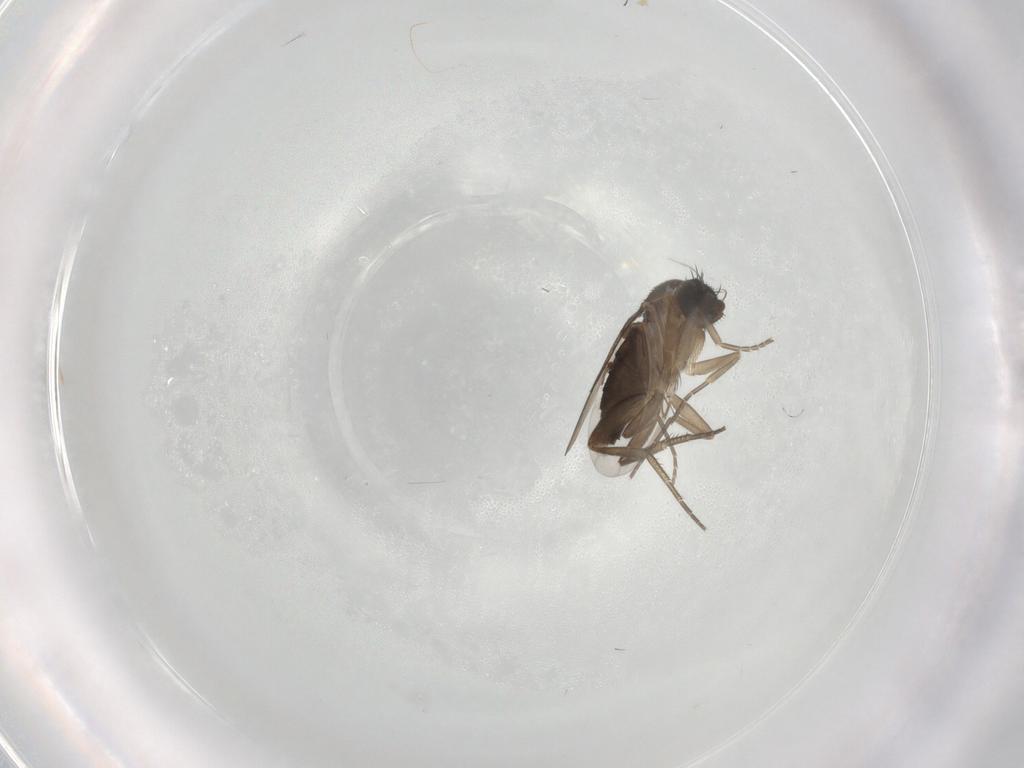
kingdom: Animalia
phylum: Arthropoda
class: Insecta
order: Diptera
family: Phoridae
